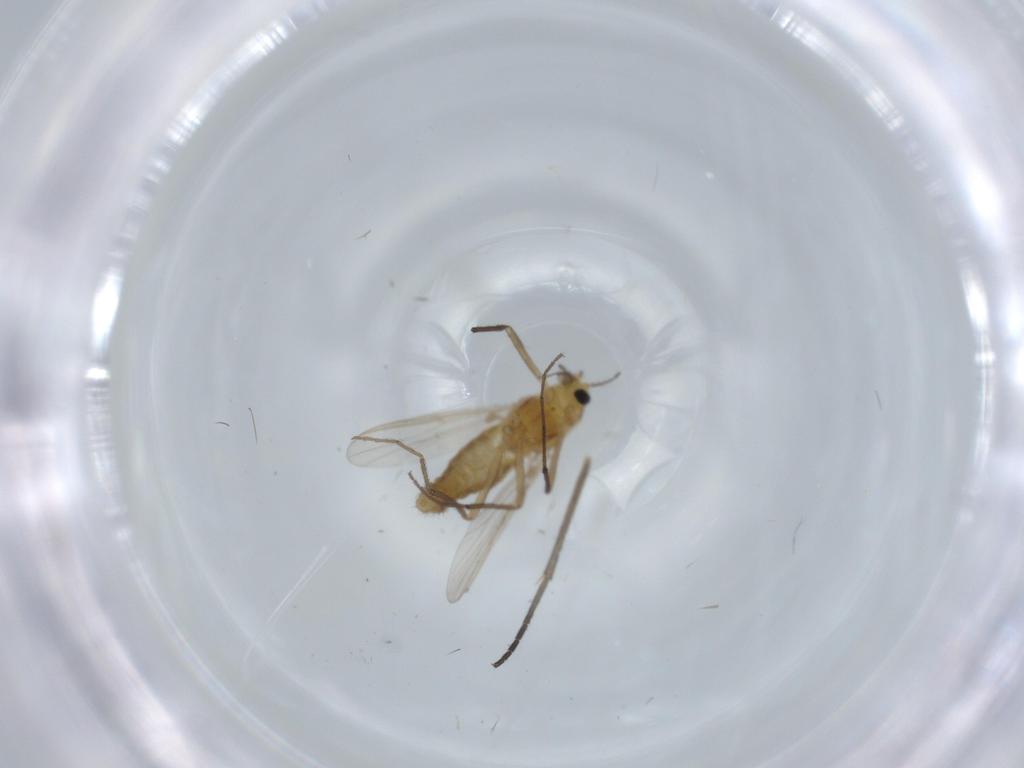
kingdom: Animalia
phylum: Arthropoda
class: Insecta
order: Diptera
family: Chironomidae
